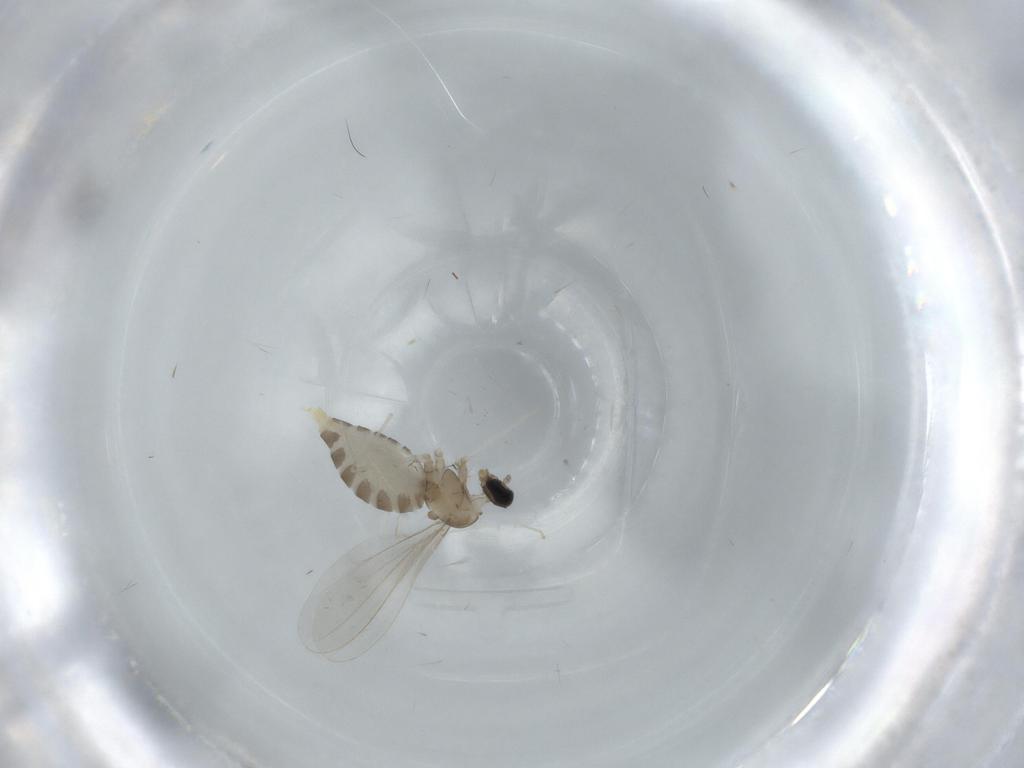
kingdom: Animalia
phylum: Arthropoda
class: Insecta
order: Diptera
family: Cecidomyiidae
